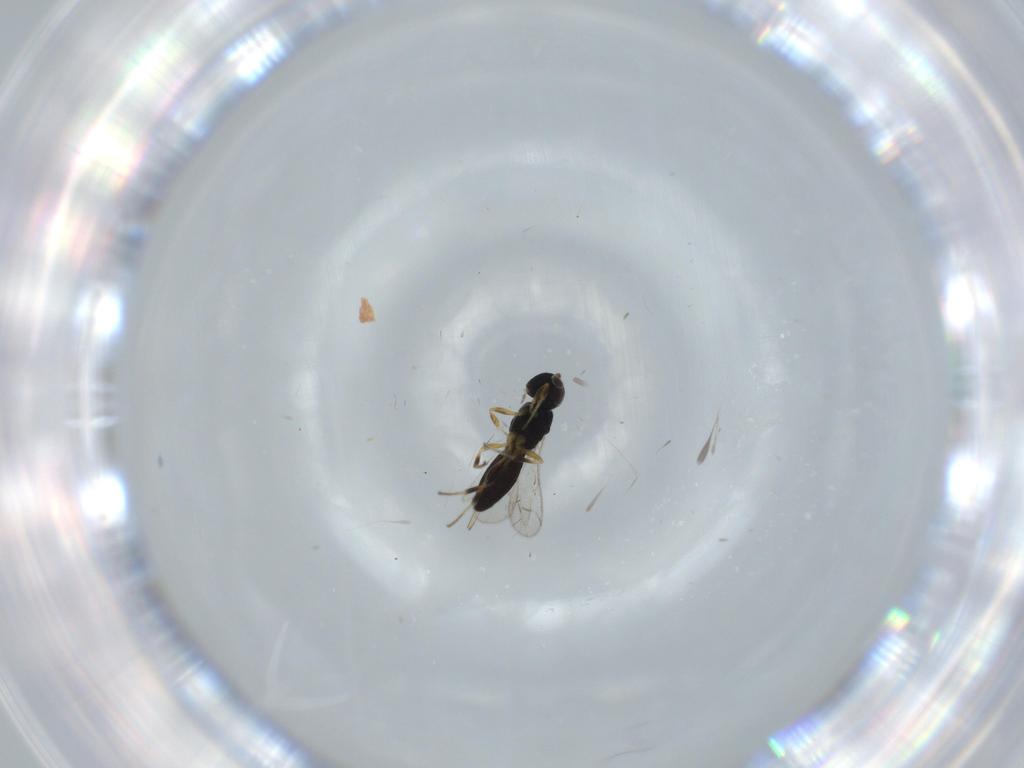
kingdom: Animalia
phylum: Arthropoda
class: Insecta
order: Hymenoptera
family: Scelionidae
